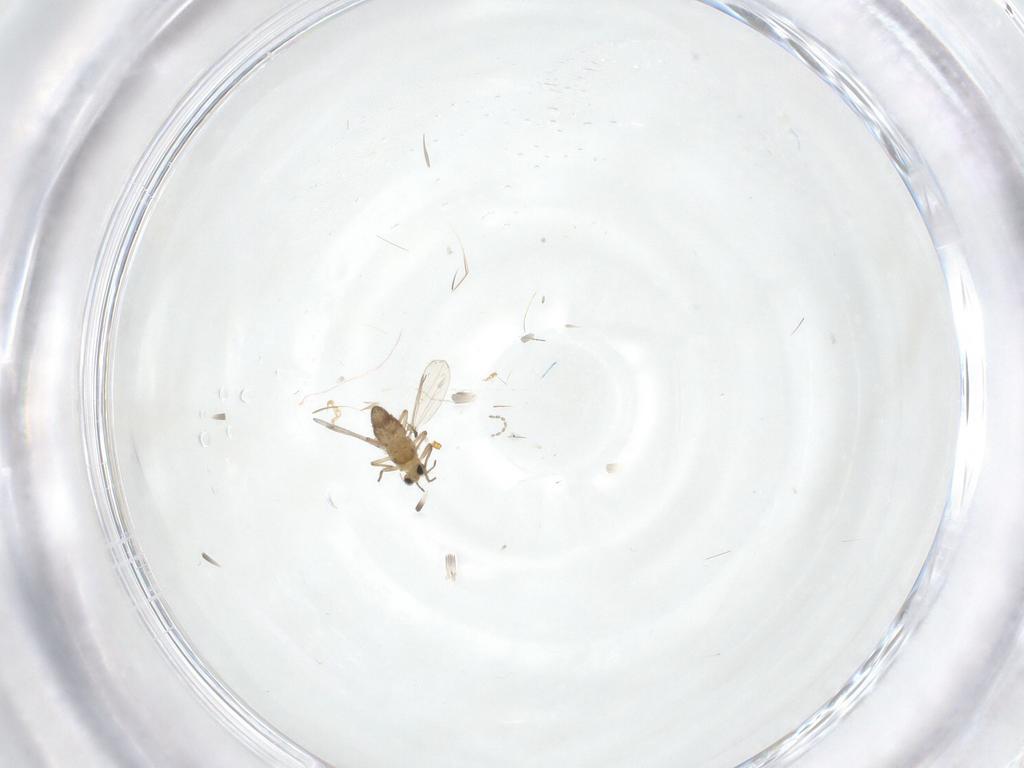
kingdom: Animalia
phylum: Arthropoda
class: Insecta
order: Diptera
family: Chironomidae
